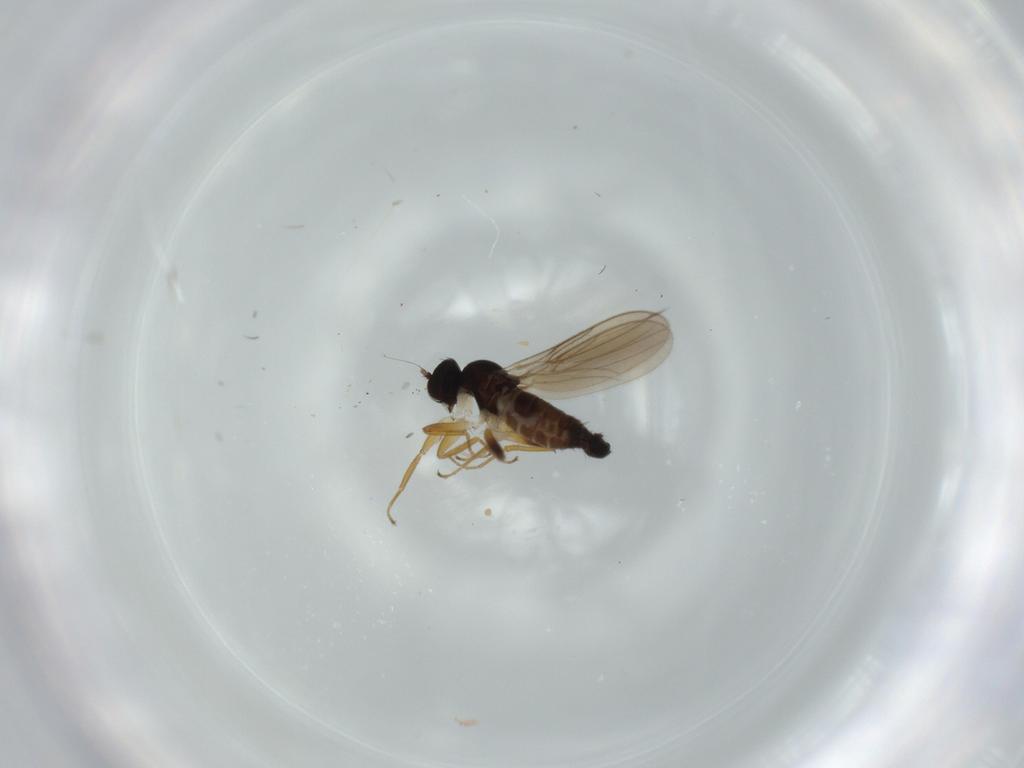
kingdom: Animalia
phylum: Arthropoda
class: Insecta
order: Diptera
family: Hybotidae
